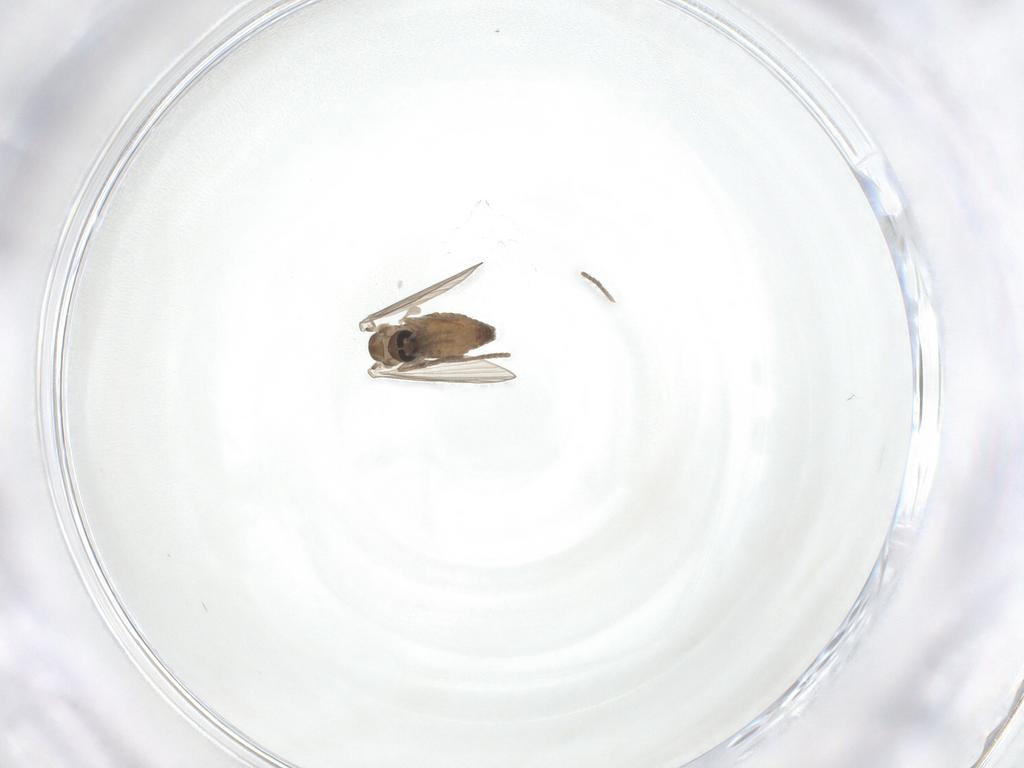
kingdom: Animalia
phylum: Arthropoda
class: Insecta
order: Diptera
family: Psychodidae
